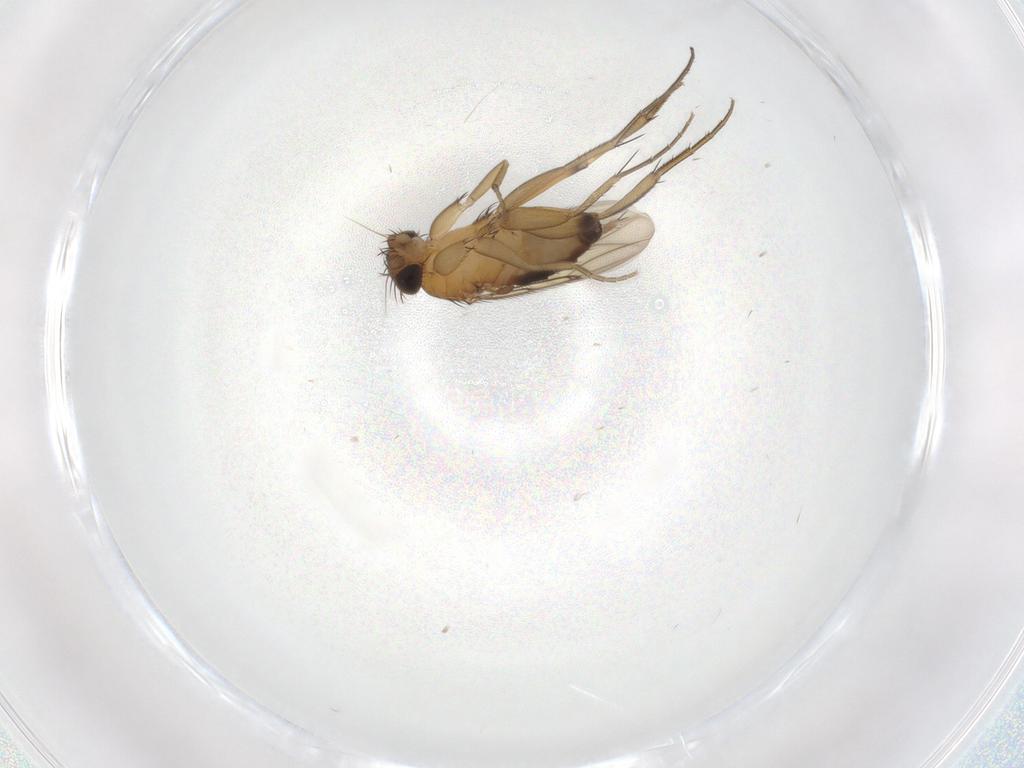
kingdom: Animalia
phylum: Arthropoda
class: Insecta
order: Diptera
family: Phoridae
